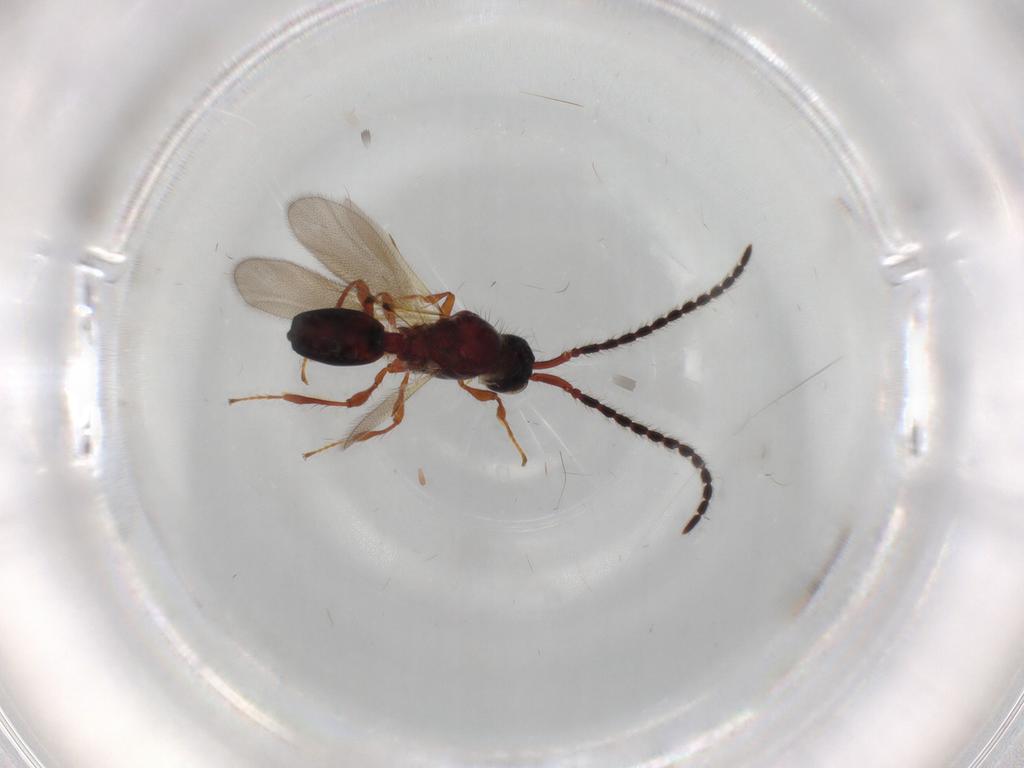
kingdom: Animalia
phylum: Arthropoda
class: Insecta
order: Hymenoptera
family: Diapriidae
